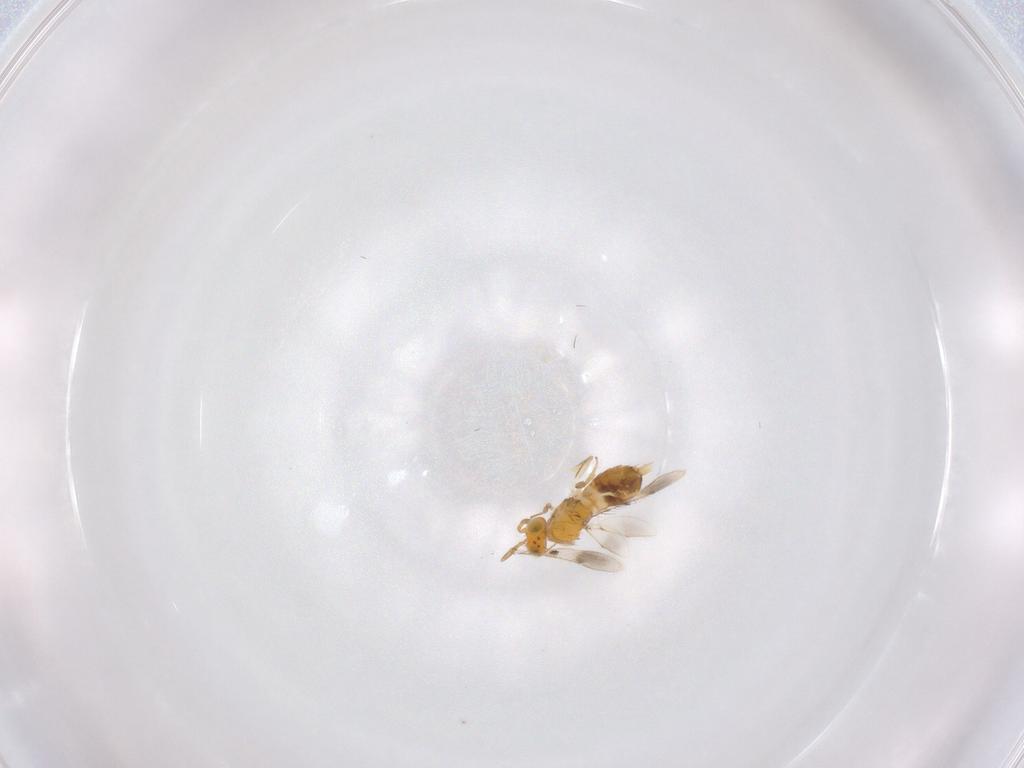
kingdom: Animalia
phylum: Arthropoda
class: Insecta
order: Hymenoptera
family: Aphelinidae
